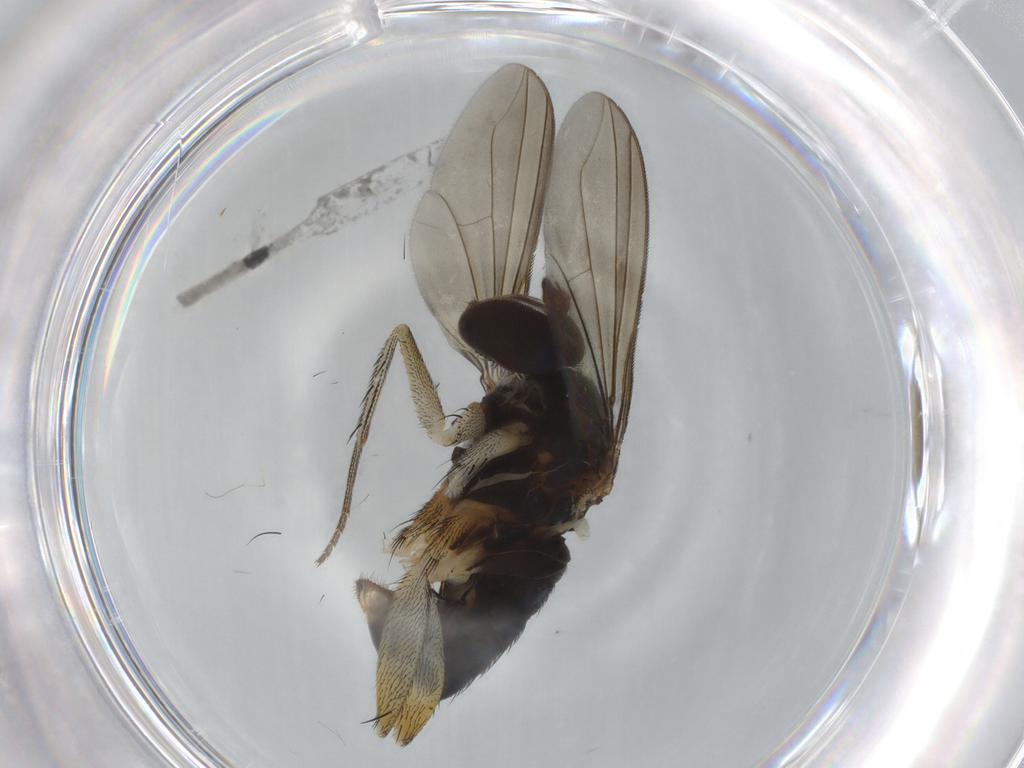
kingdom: Animalia
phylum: Arthropoda
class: Insecta
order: Diptera
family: Dolichopodidae
